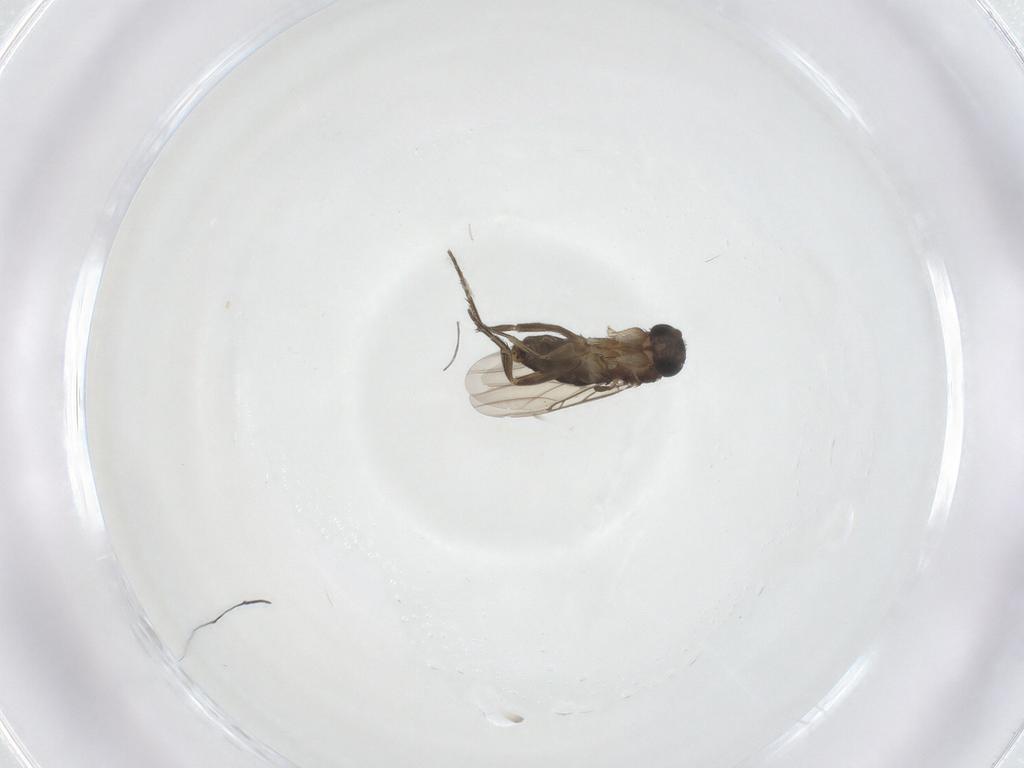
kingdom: Animalia
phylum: Arthropoda
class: Insecta
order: Diptera
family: Phoridae
